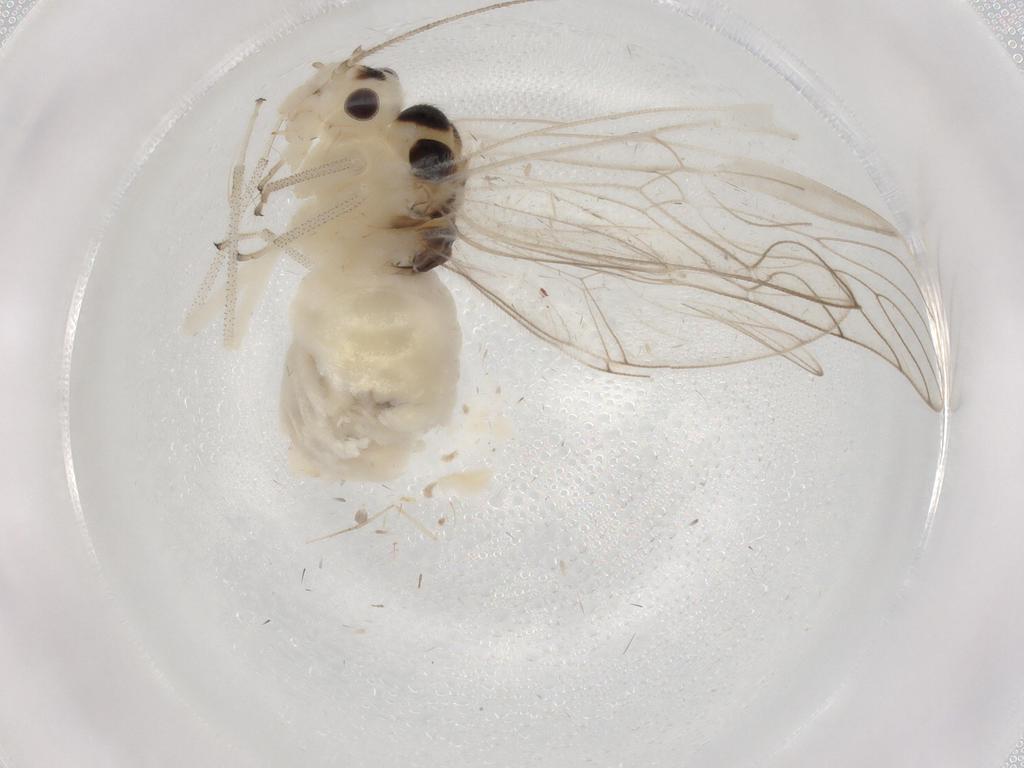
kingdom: Animalia
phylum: Arthropoda
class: Insecta
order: Psocodea
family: Amphipsocidae
